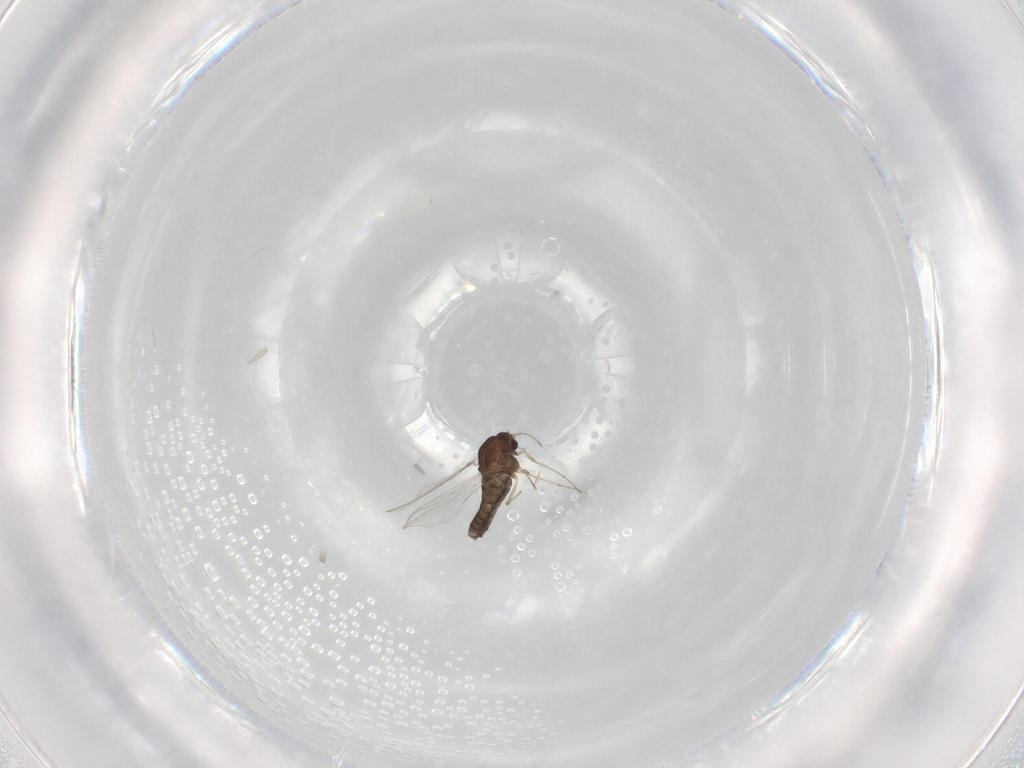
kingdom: Animalia
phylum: Arthropoda
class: Insecta
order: Diptera
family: Chironomidae
